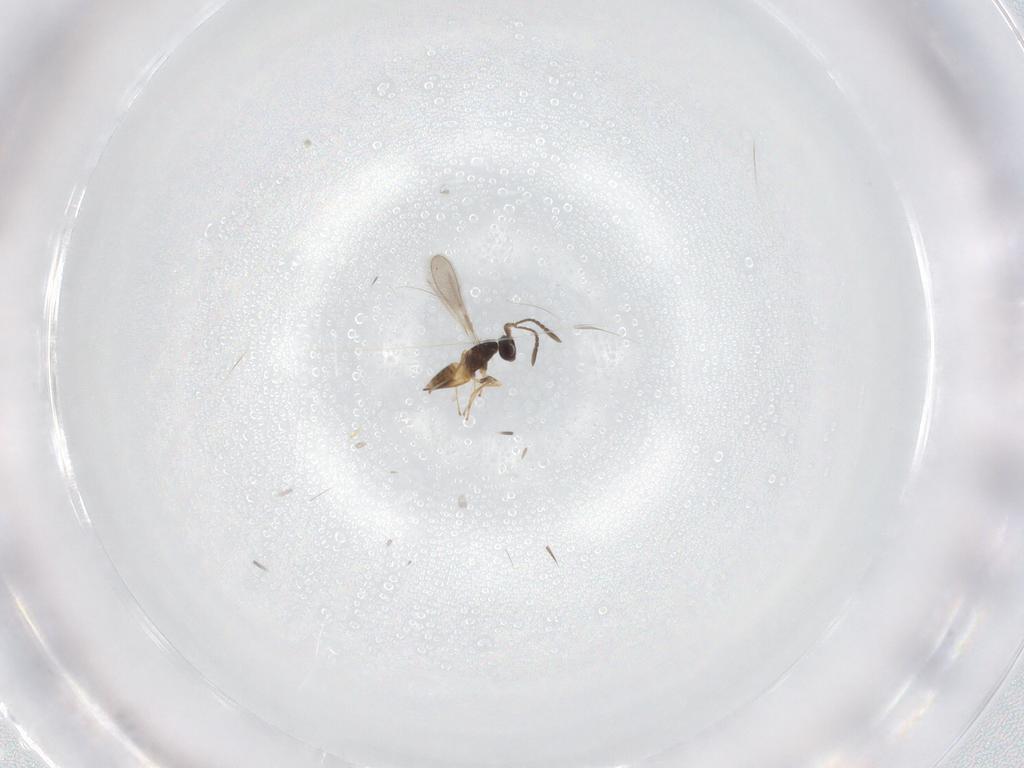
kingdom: Animalia
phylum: Arthropoda
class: Insecta
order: Hymenoptera
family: Mymaridae
